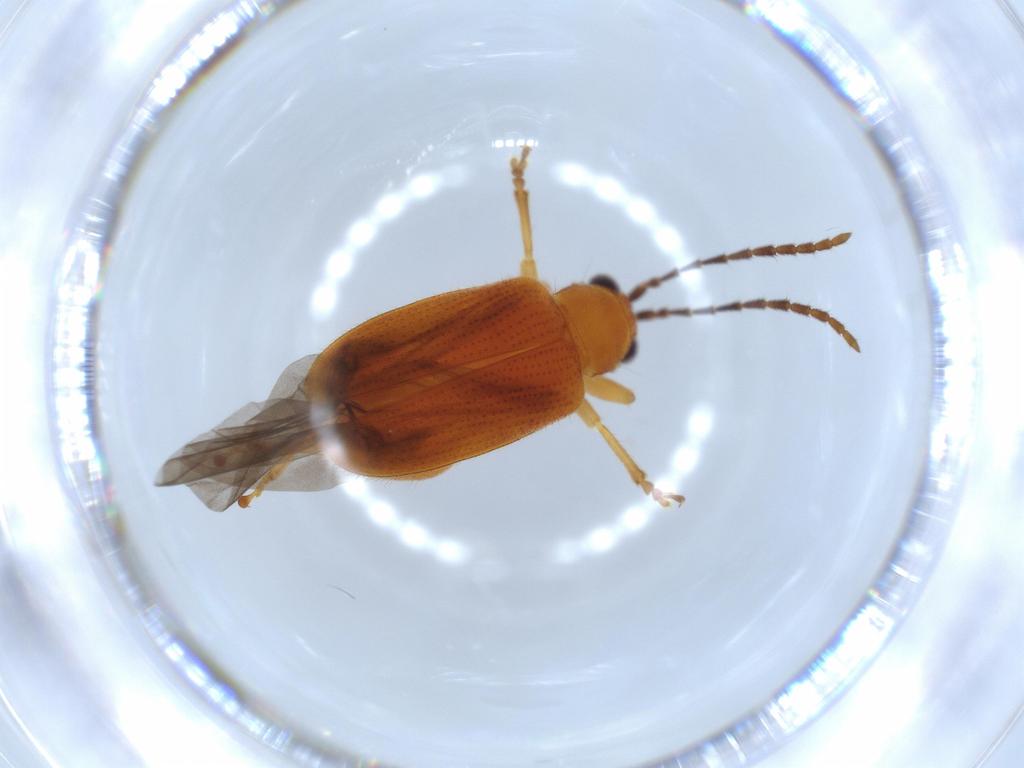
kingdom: Animalia
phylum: Arthropoda
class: Insecta
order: Coleoptera
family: Chrysomelidae
